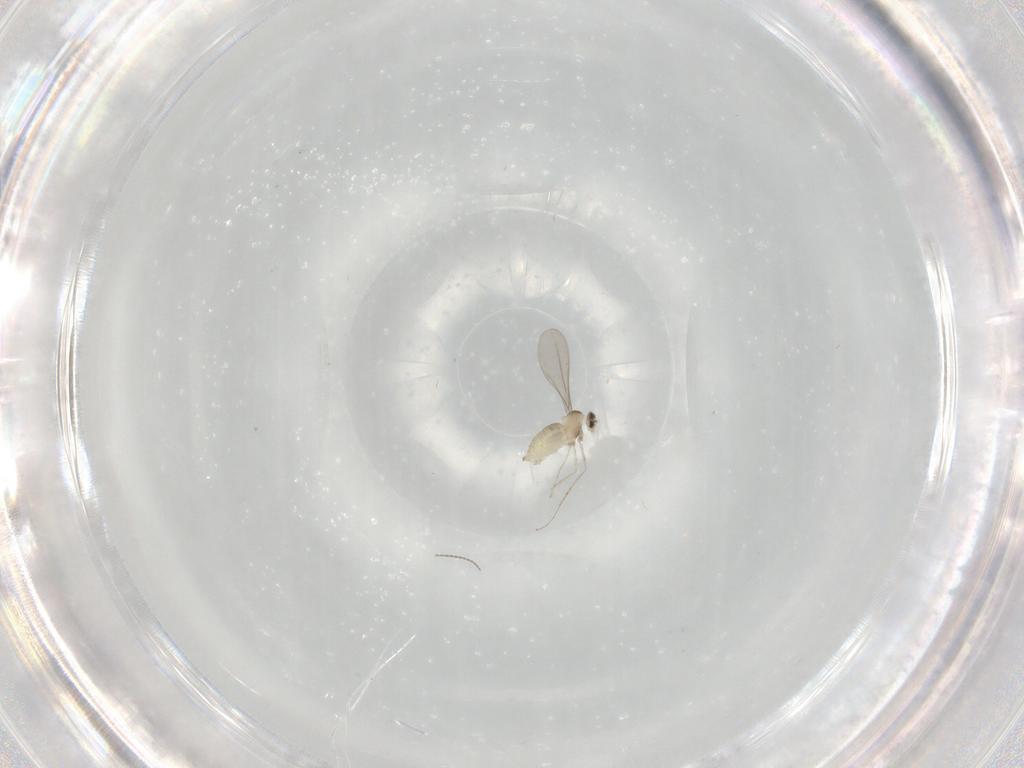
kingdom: Animalia
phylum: Arthropoda
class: Insecta
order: Diptera
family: Cecidomyiidae
